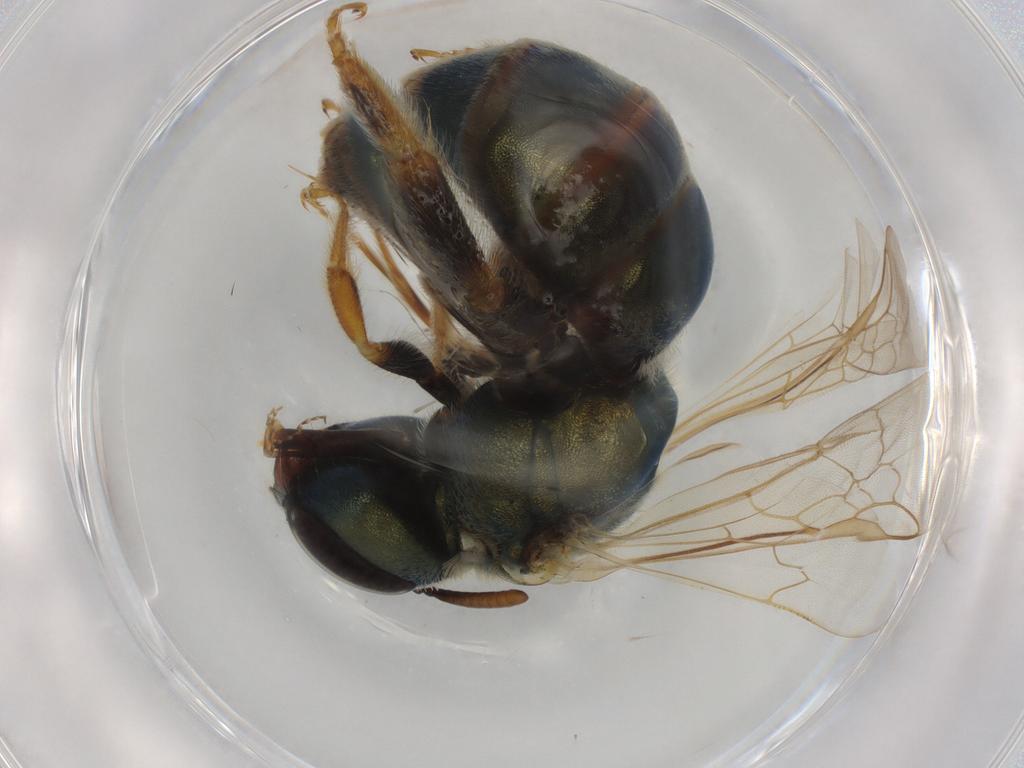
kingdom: Animalia
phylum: Arthropoda
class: Insecta
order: Hymenoptera
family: Halictidae
